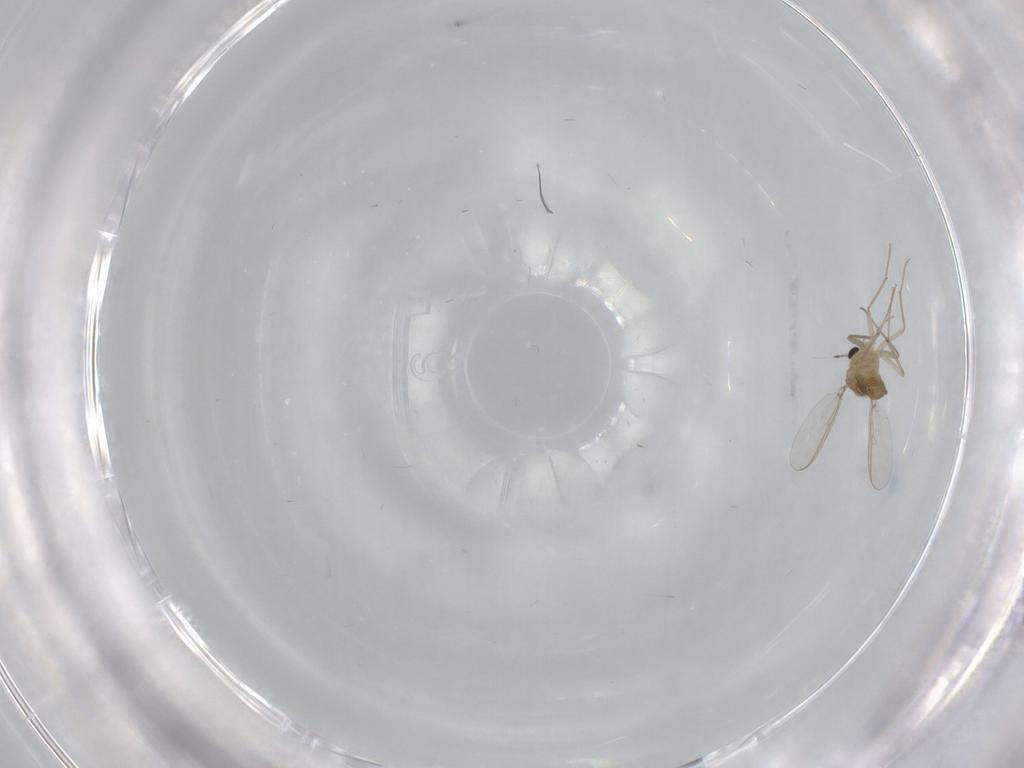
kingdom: Animalia
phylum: Arthropoda
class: Insecta
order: Diptera
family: Chironomidae
